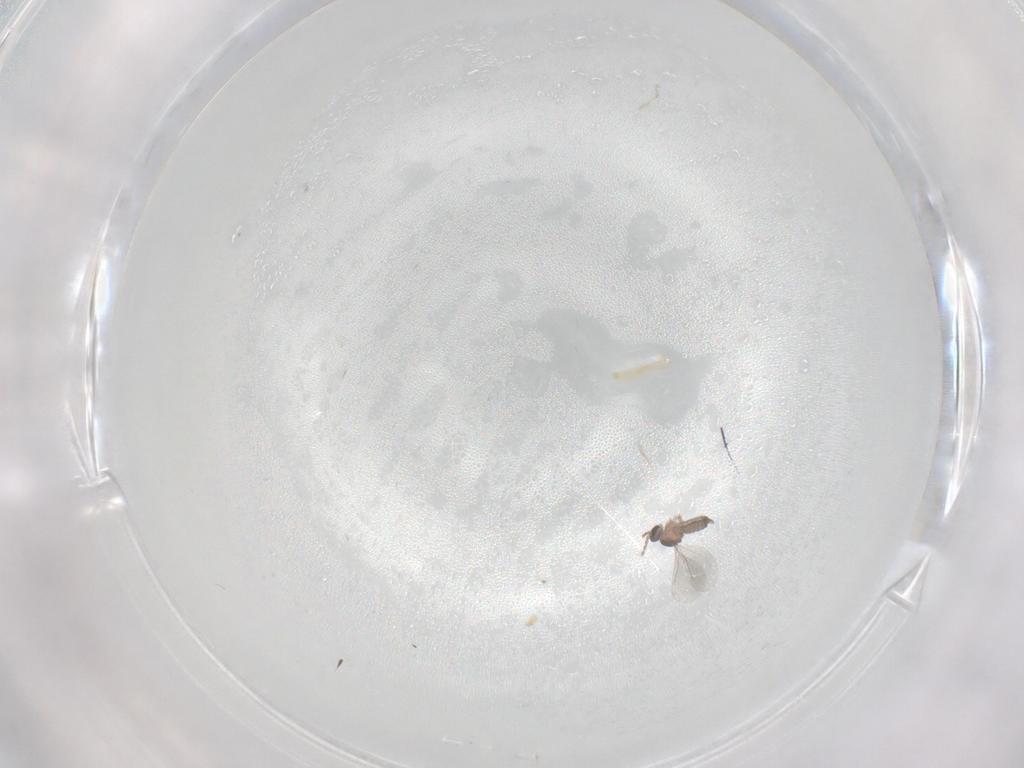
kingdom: Animalia
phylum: Arthropoda
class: Insecta
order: Diptera
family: Cecidomyiidae
